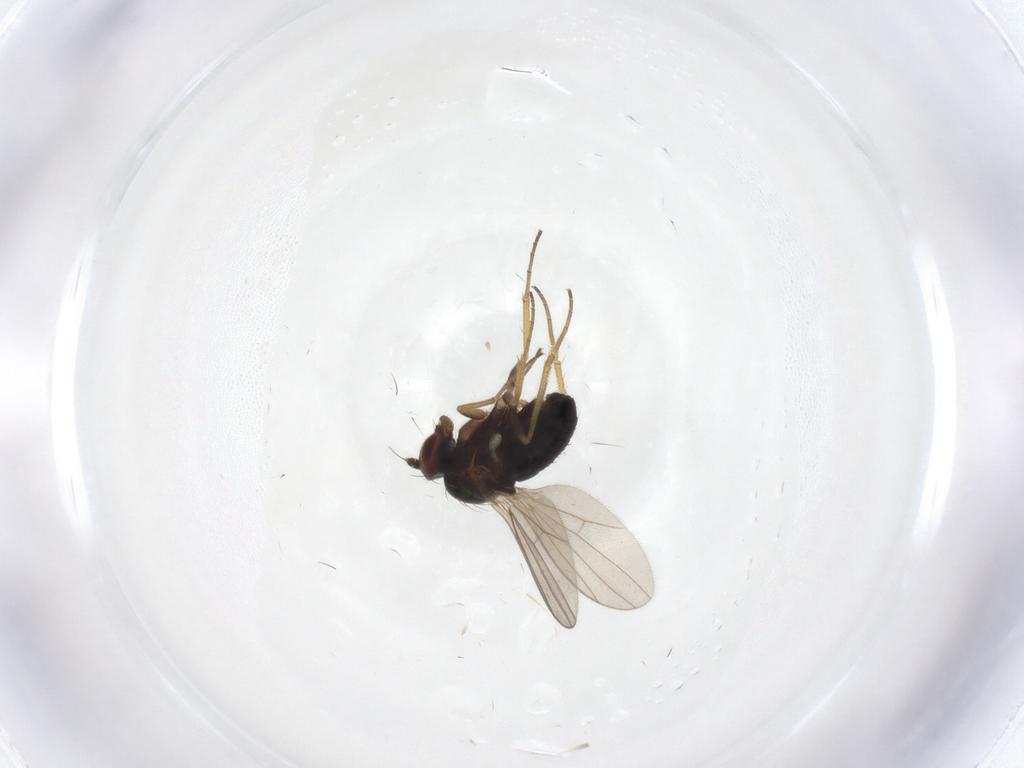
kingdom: Animalia
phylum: Arthropoda
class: Insecta
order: Diptera
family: Dolichopodidae
